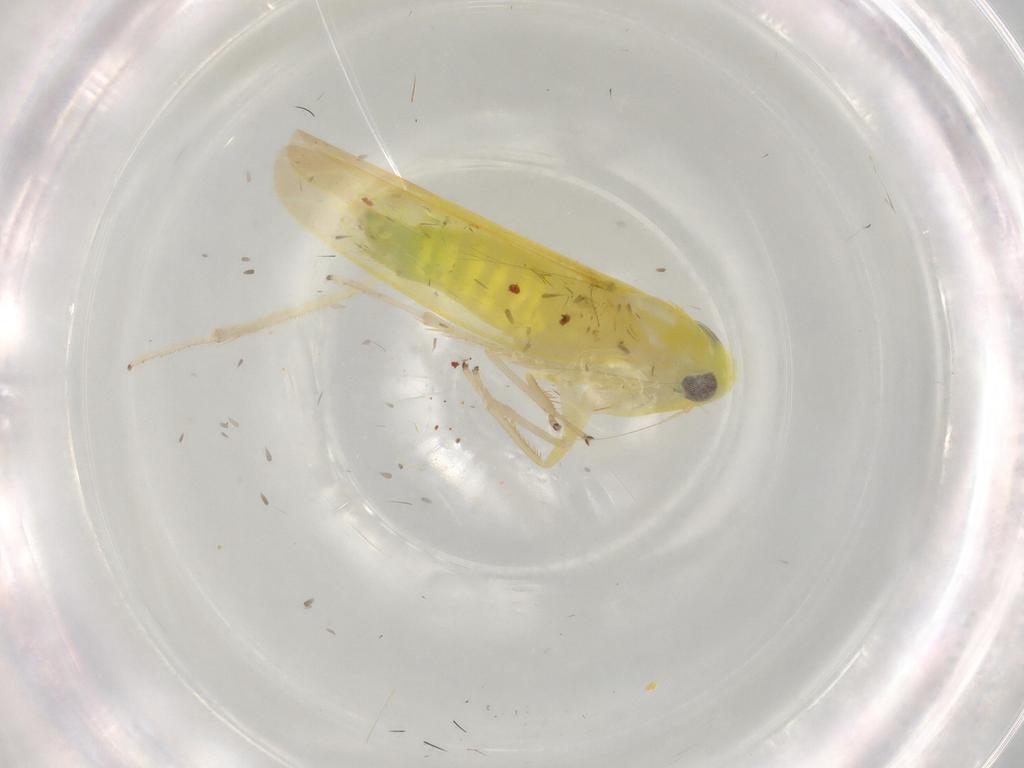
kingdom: Animalia
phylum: Arthropoda
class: Insecta
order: Hemiptera
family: Cicadellidae
